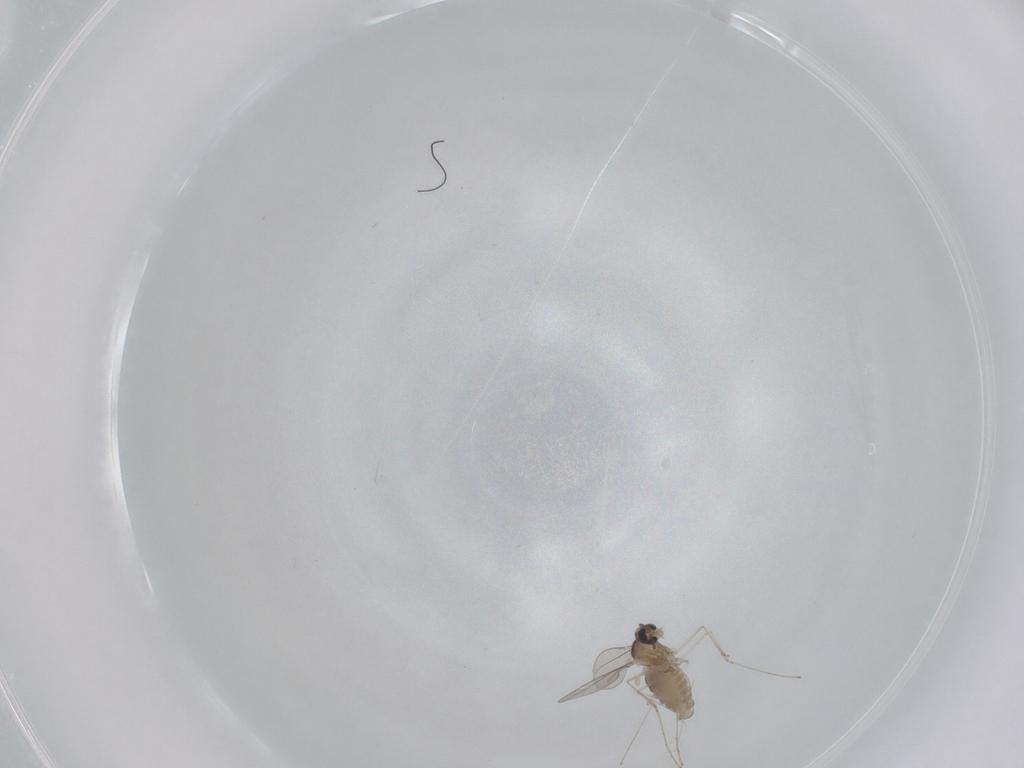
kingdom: Animalia
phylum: Arthropoda
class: Insecta
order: Diptera
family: Cecidomyiidae
